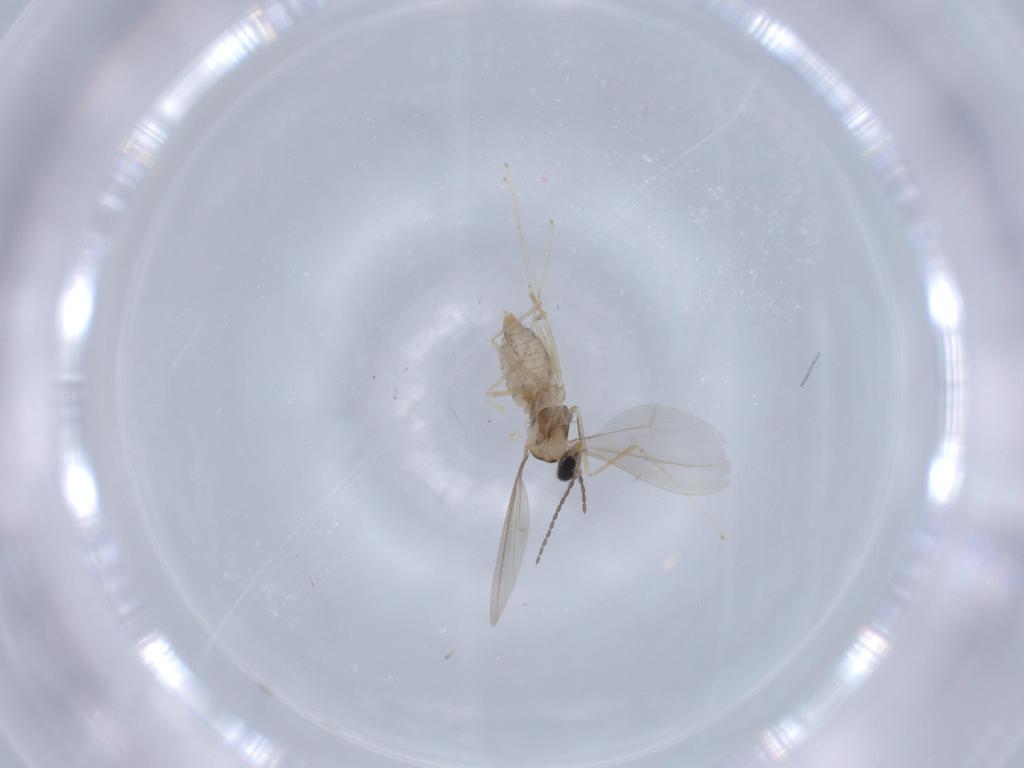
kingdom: Animalia
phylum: Arthropoda
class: Insecta
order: Diptera
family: Cecidomyiidae
